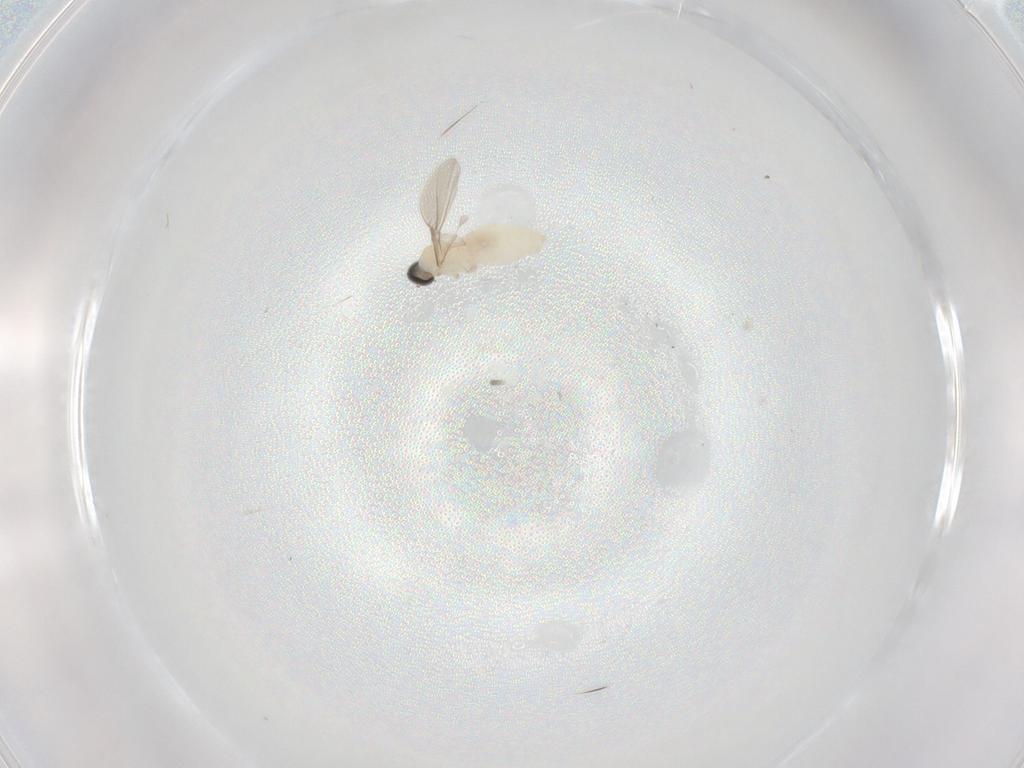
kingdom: Animalia
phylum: Arthropoda
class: Insecta
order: Diptera
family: Cecidomyiidae
